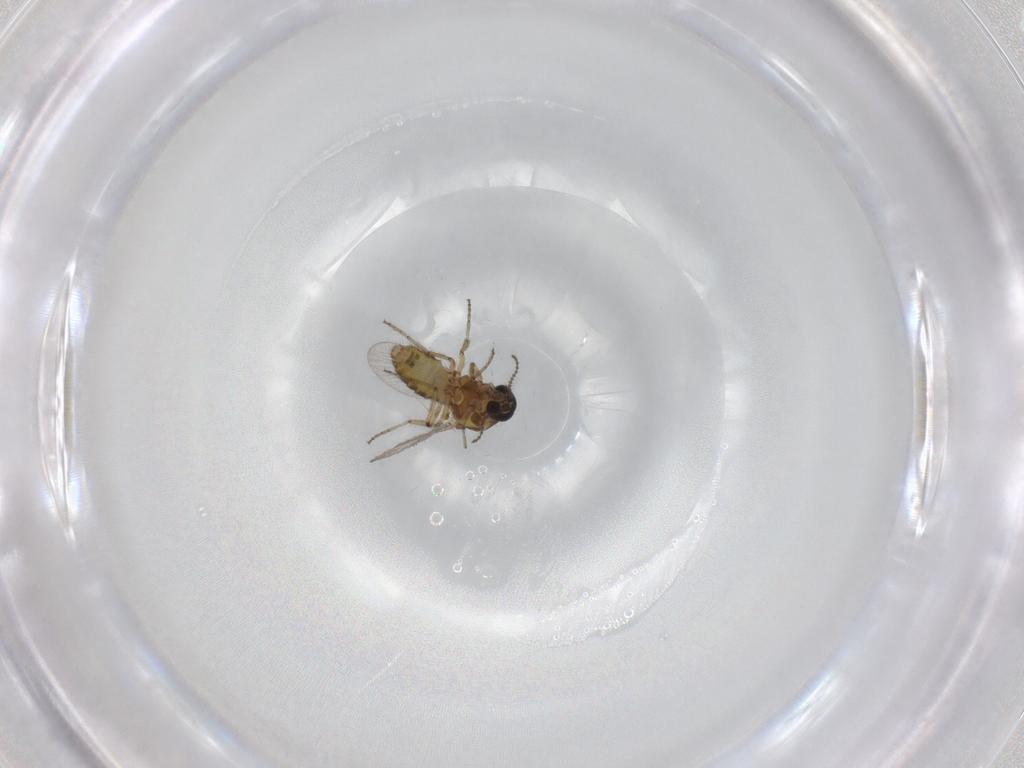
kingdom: Animalia
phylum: Arthropoda
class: Insecta
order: Diptera
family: Ceratopogonidae
